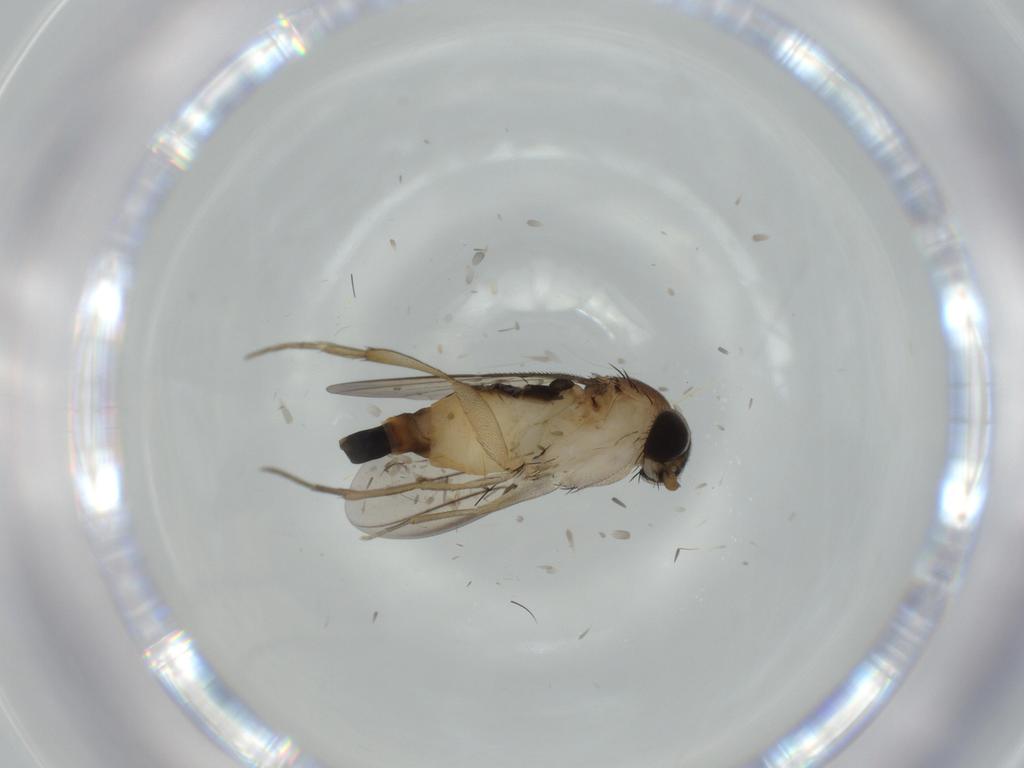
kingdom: Animalia
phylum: Arthropoda
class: Insecta
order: Diptera
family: Phoridae
